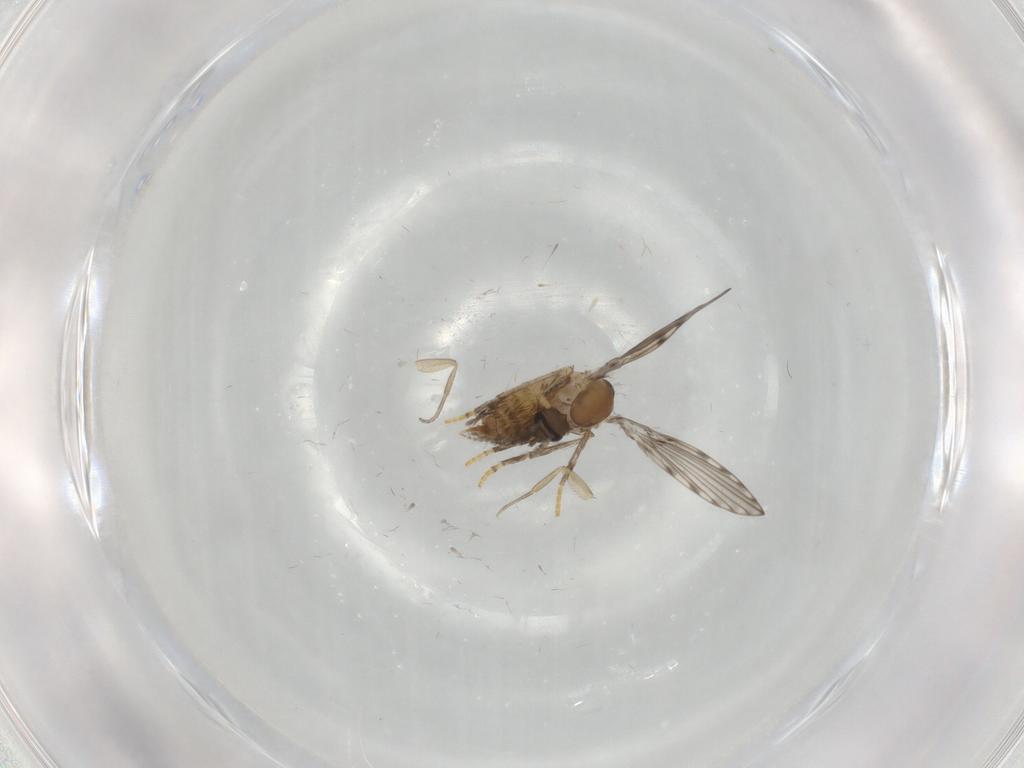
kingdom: Animalia
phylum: Arthropoda
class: Insecta
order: Diptera
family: Psychodidae
